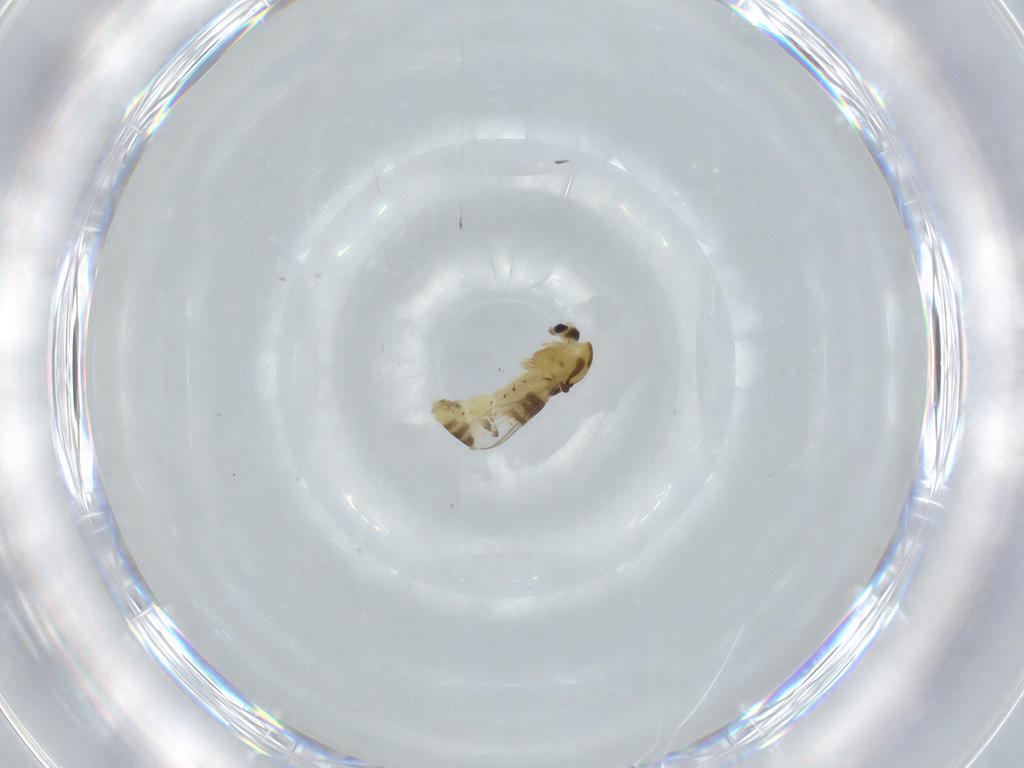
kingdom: Animalia
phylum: Arthropoda
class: Insecta
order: Diptera
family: Chironomidae
